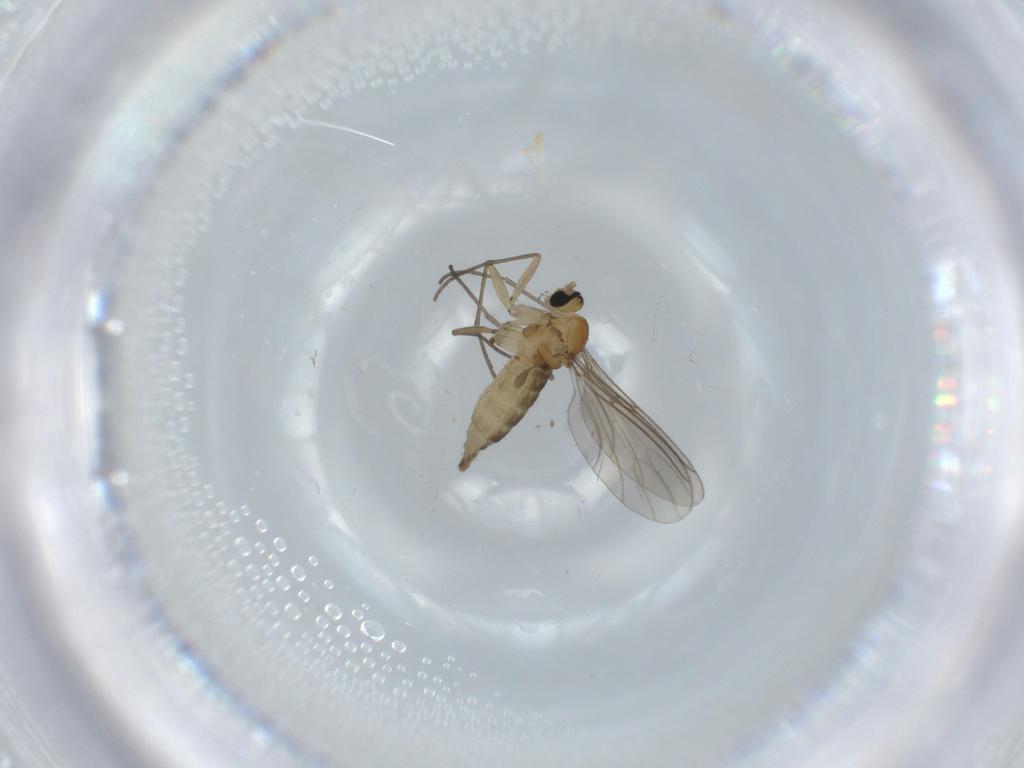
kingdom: Animalia
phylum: Arthropoda
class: Insecta
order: Diptera
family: Sciaridae
